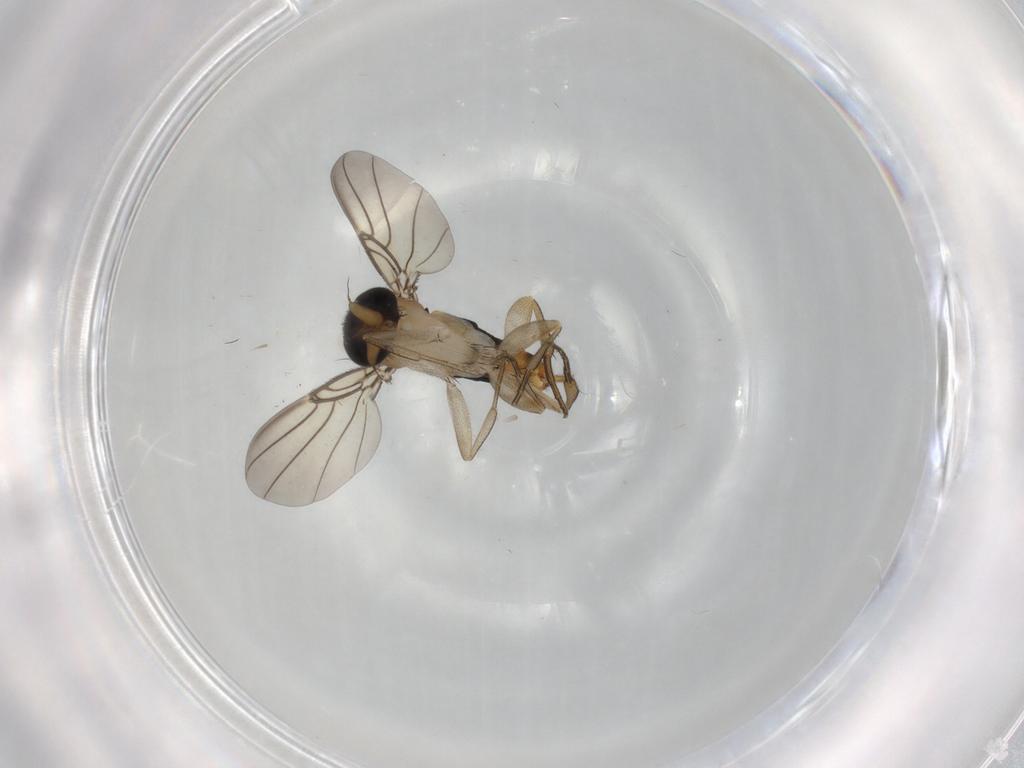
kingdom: Animalia
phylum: Arthropoda
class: Insecta
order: Diptera
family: Phoridae
